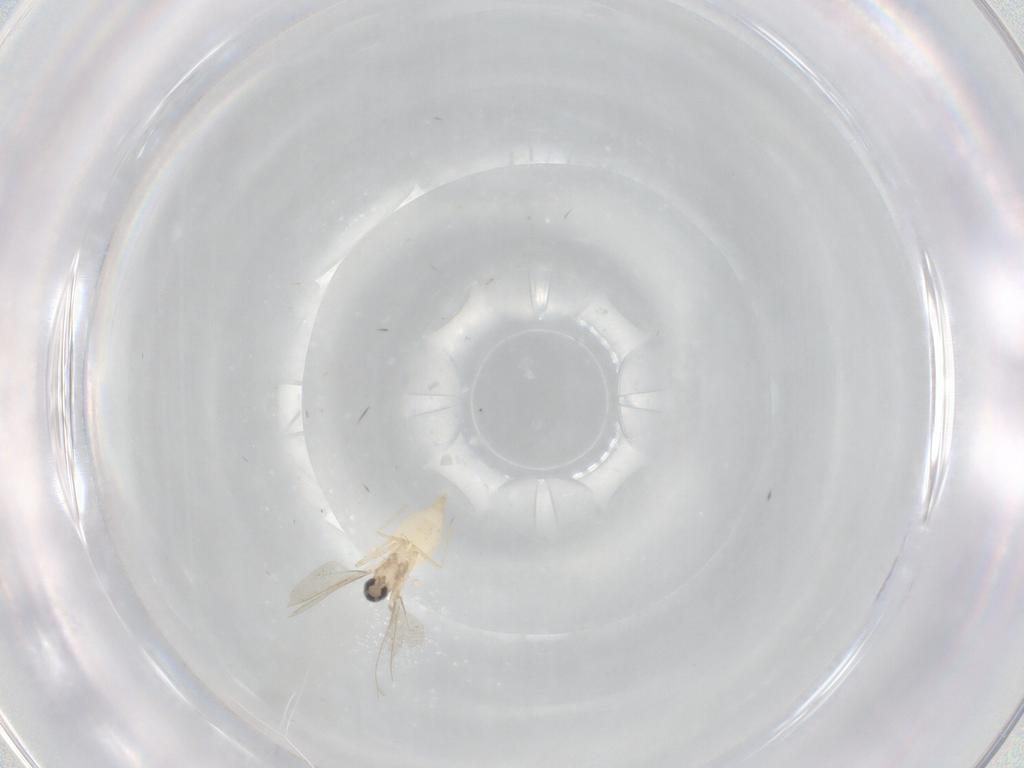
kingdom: Animalia
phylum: Arthropoda
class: Insecta
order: Diptera
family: Cecidomyiidae
